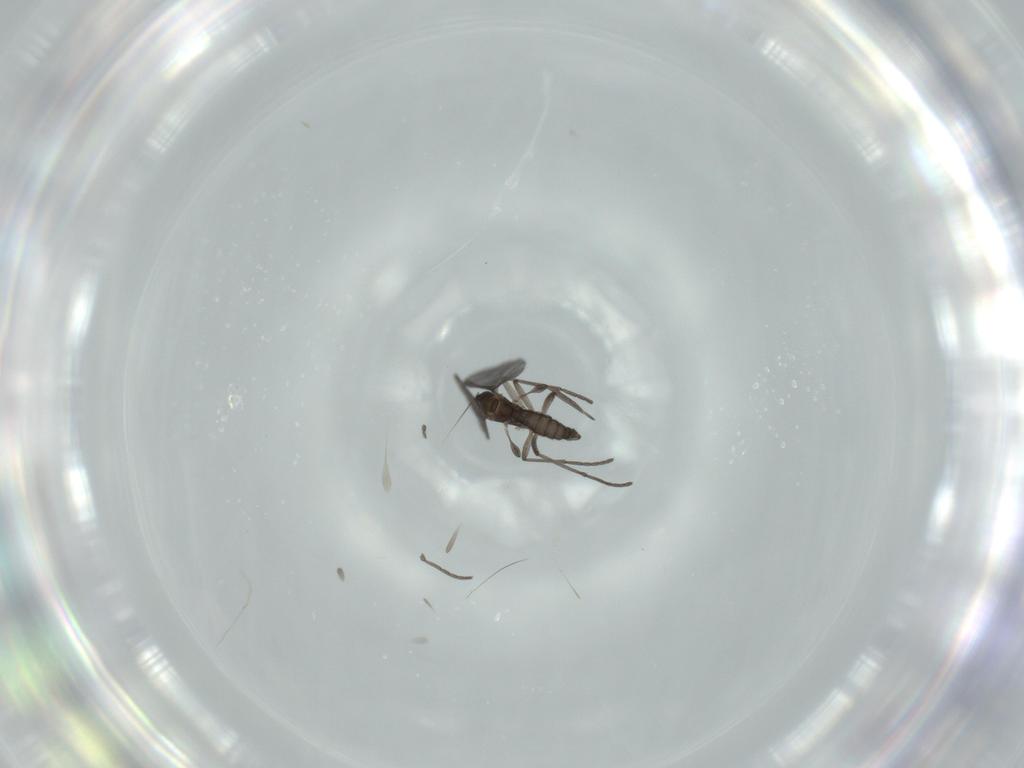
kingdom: Animalia
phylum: Arthropoda
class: Insecta
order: Diptera
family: Sciaridae
